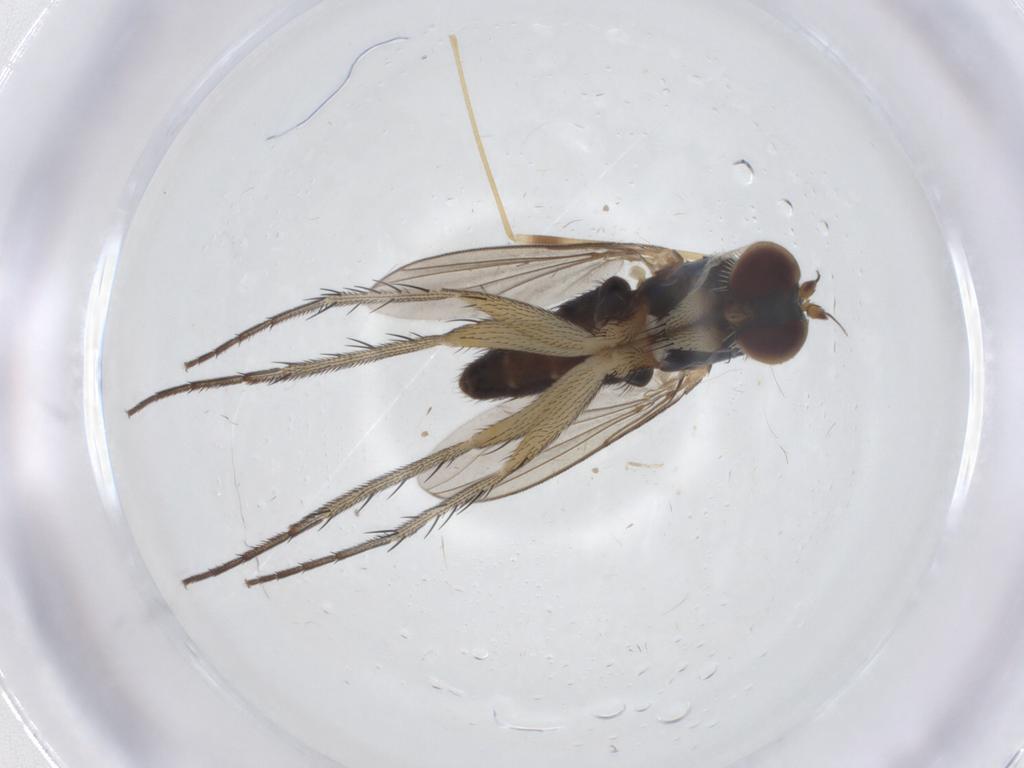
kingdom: Animalia
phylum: Arthropoda
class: Insecta
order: Diptera
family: Dolichopodidae
